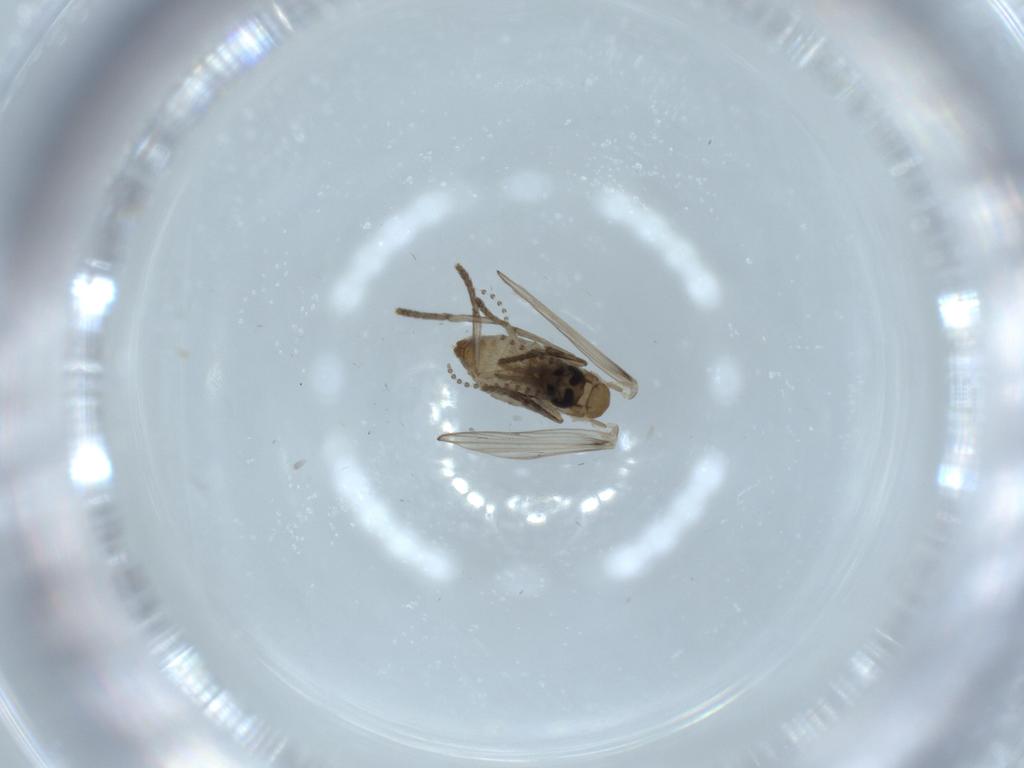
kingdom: Animalia
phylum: Arthropoda
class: Insecta
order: Diptera
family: Psychodidae
